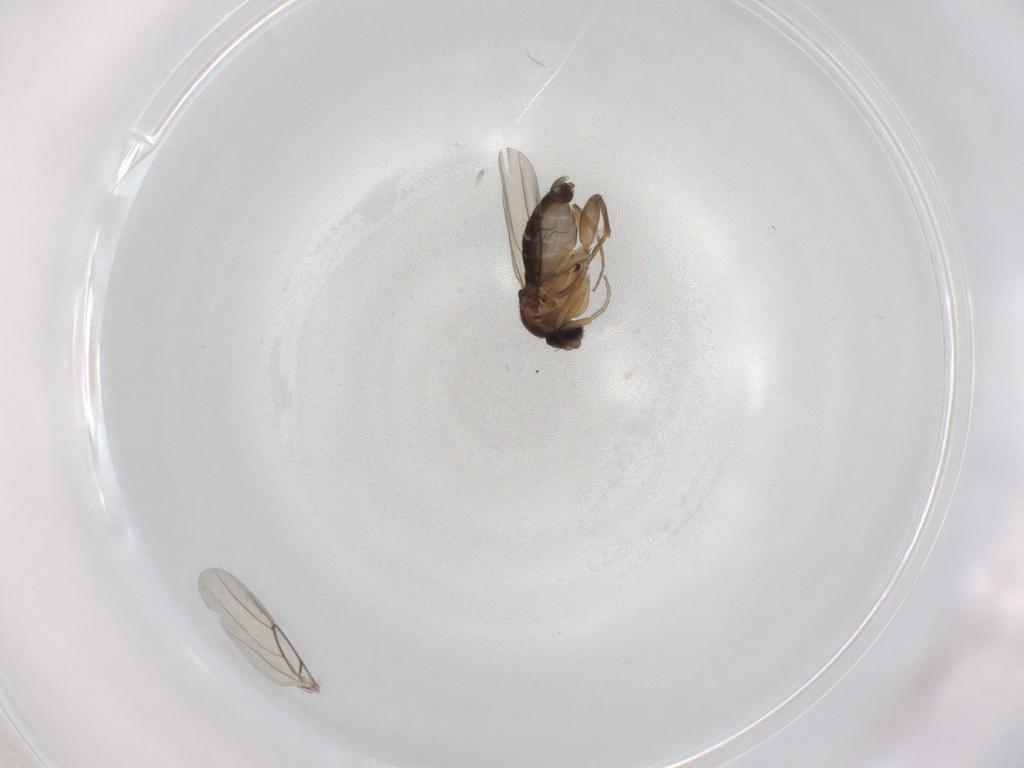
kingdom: Animalia
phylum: Arthropoda
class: Insecta
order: Diptera
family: Phoridae
